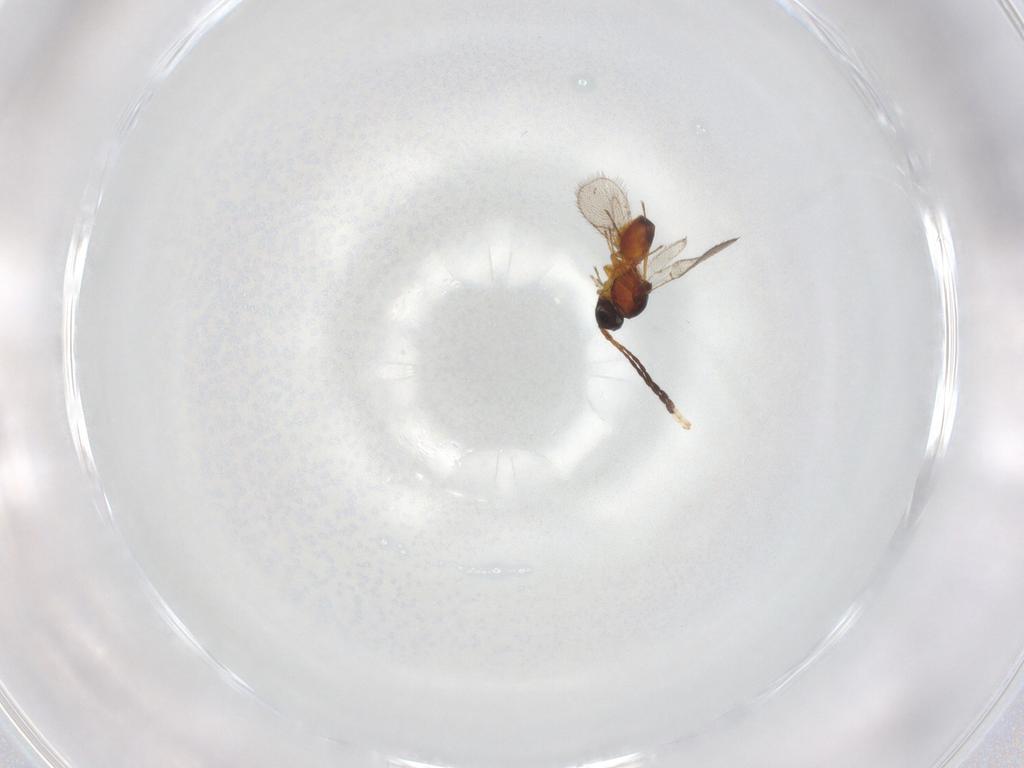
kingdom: Animalia
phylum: Arthropoda
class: Insecta
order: Hymenoptera
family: Figitidae
